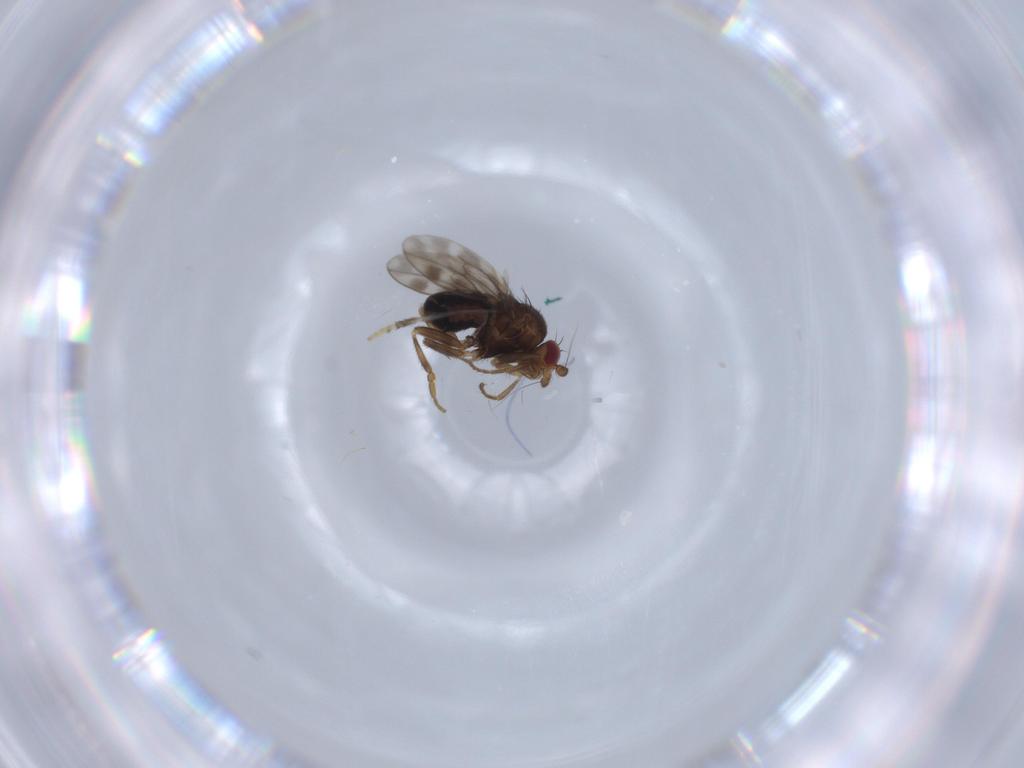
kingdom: Animalia
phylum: Arthropoda
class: Insecta
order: Diptera
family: Sphaeroceridae
